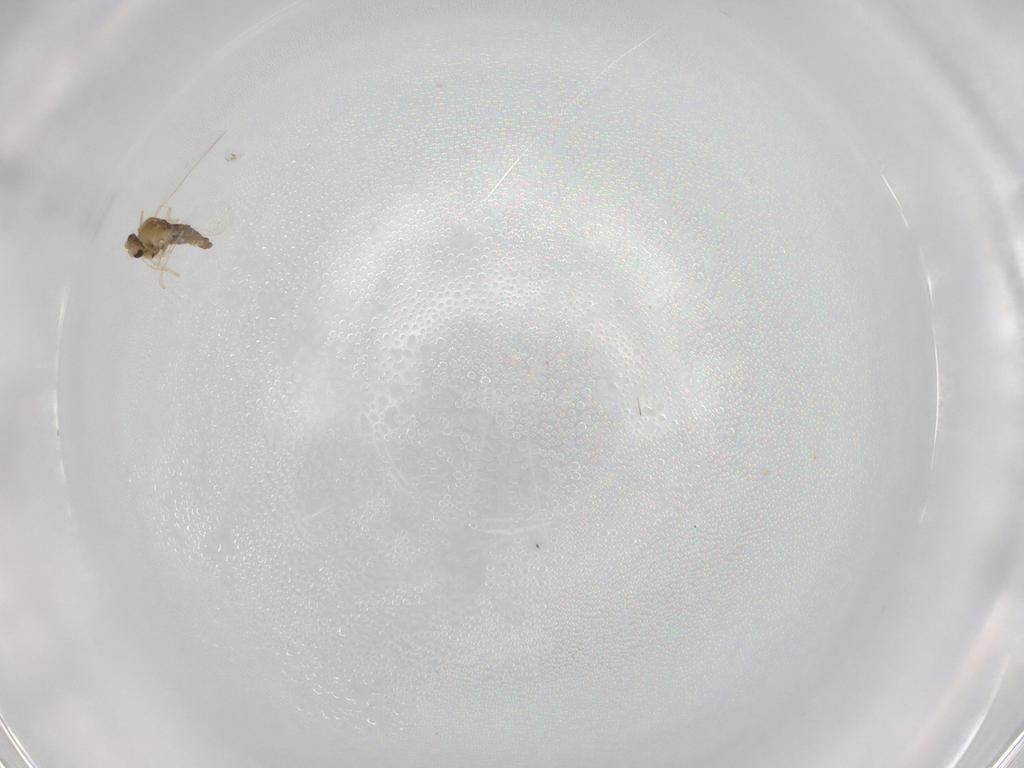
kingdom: Animalia
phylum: Arthropoda
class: Insecta
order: Diptera
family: Chironomidae
